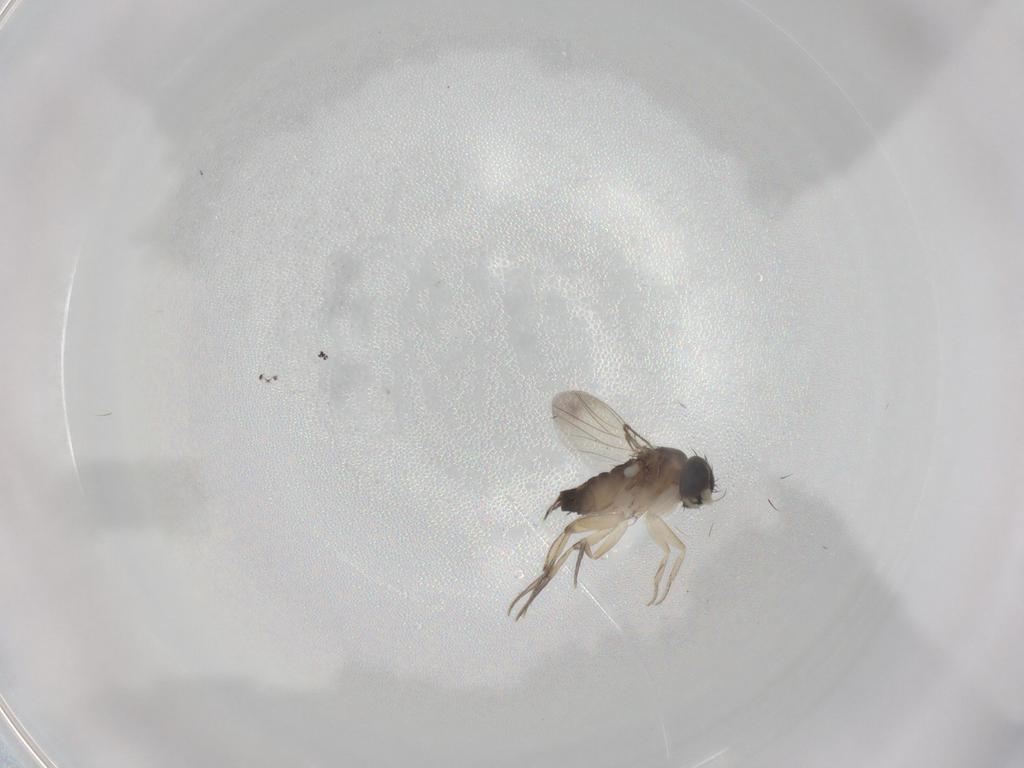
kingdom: Animalia
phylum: Arthropoda
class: Insecta
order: Diptera
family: Phoridae
